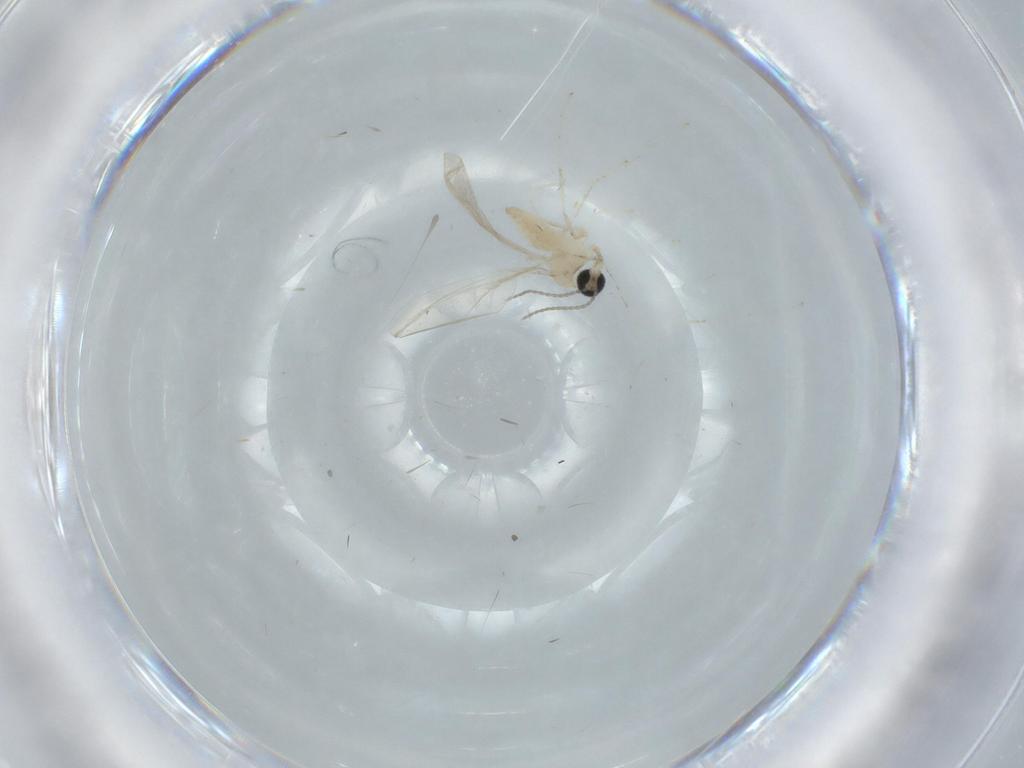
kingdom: Animalia
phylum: Arthropoda
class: Insecta
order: Diptera
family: Cecidomyiidae
